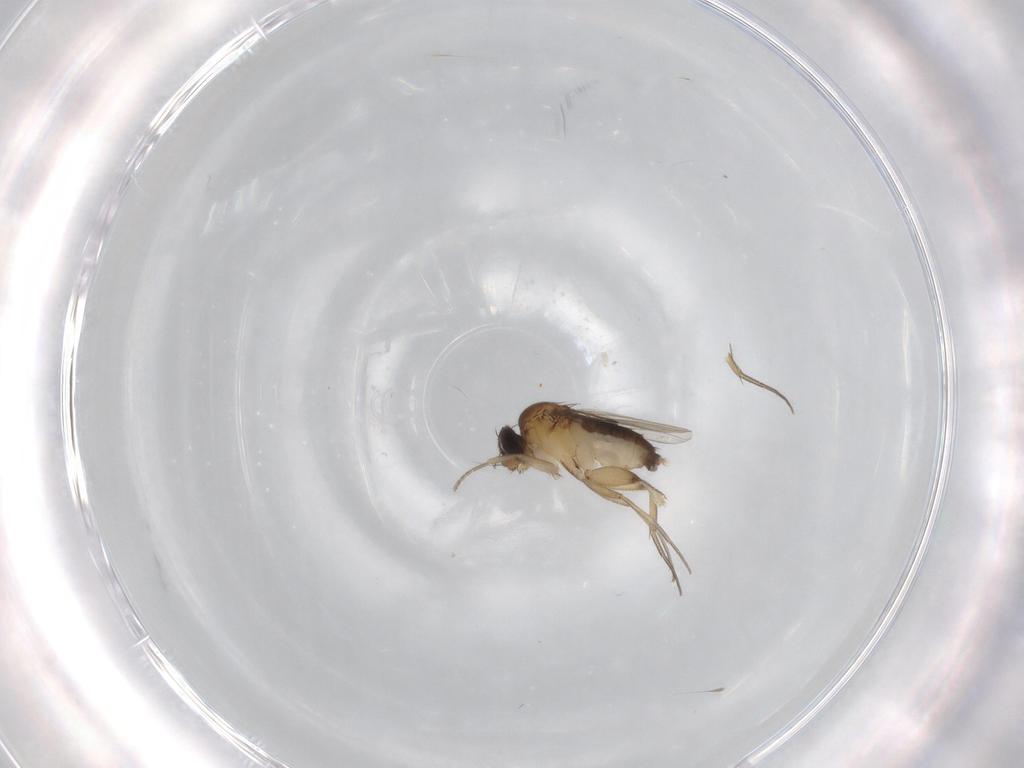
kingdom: Animalia
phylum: Arthropoda
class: Insecta
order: Diptera
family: Phoridae
